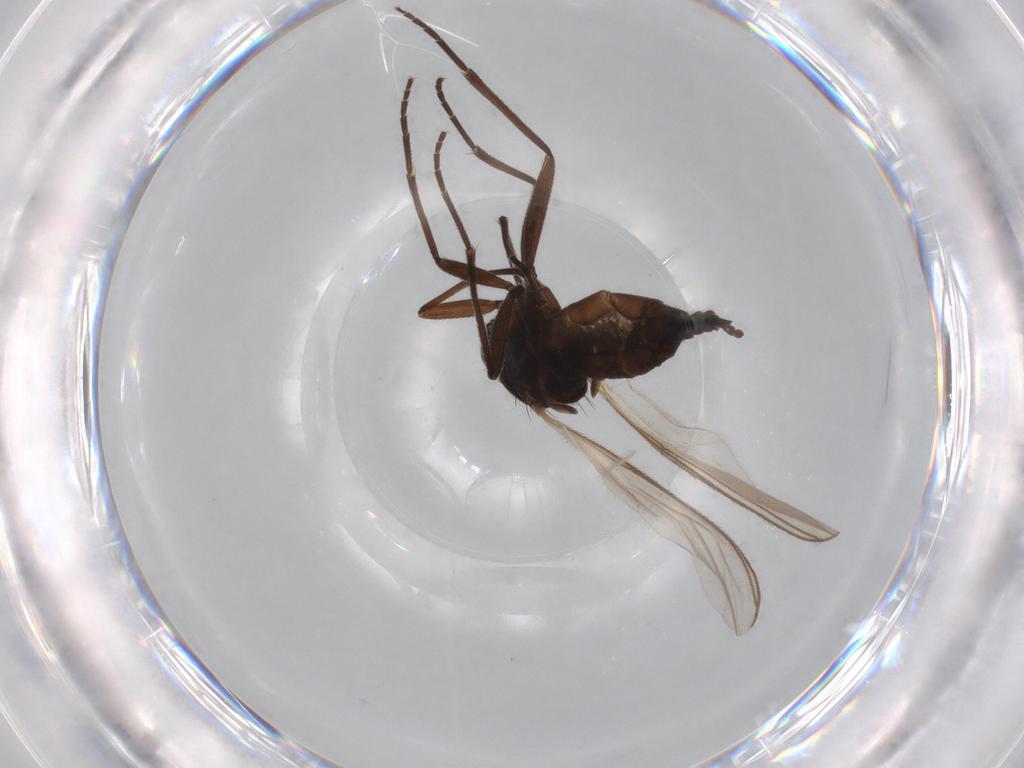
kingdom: Animalia
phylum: Arthropoda
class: Insecta
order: Diptera
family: Sciaridae
